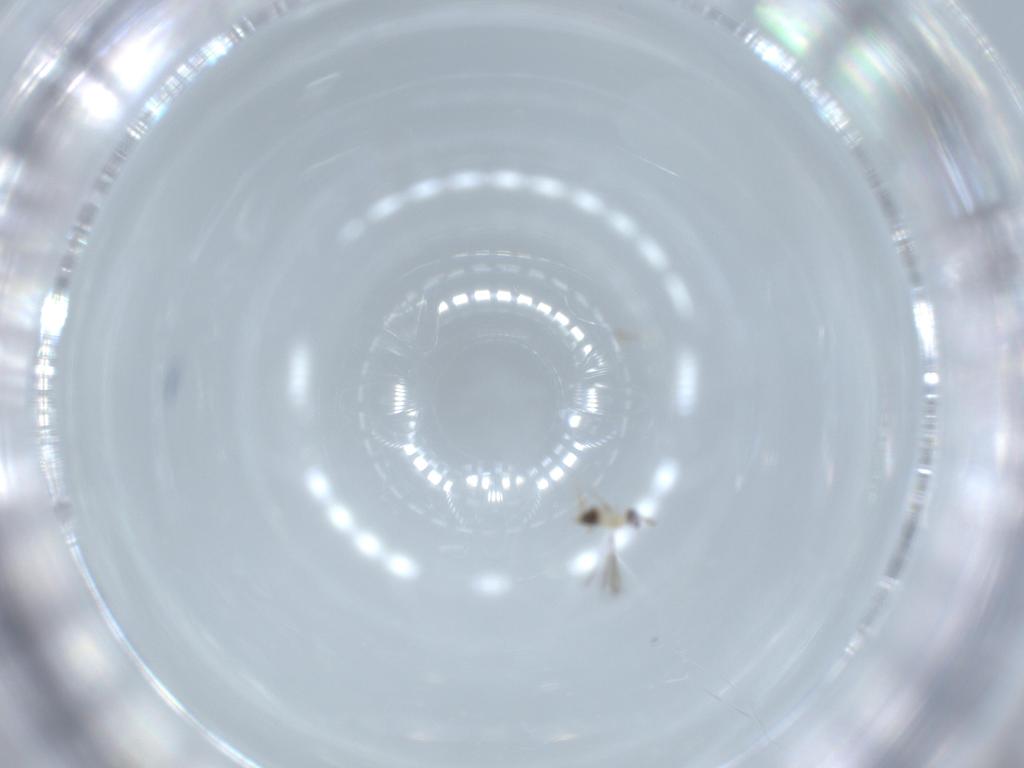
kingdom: Animalia
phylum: Arthropoda
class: Insecta
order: Hymenoptera
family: Mymaridae
